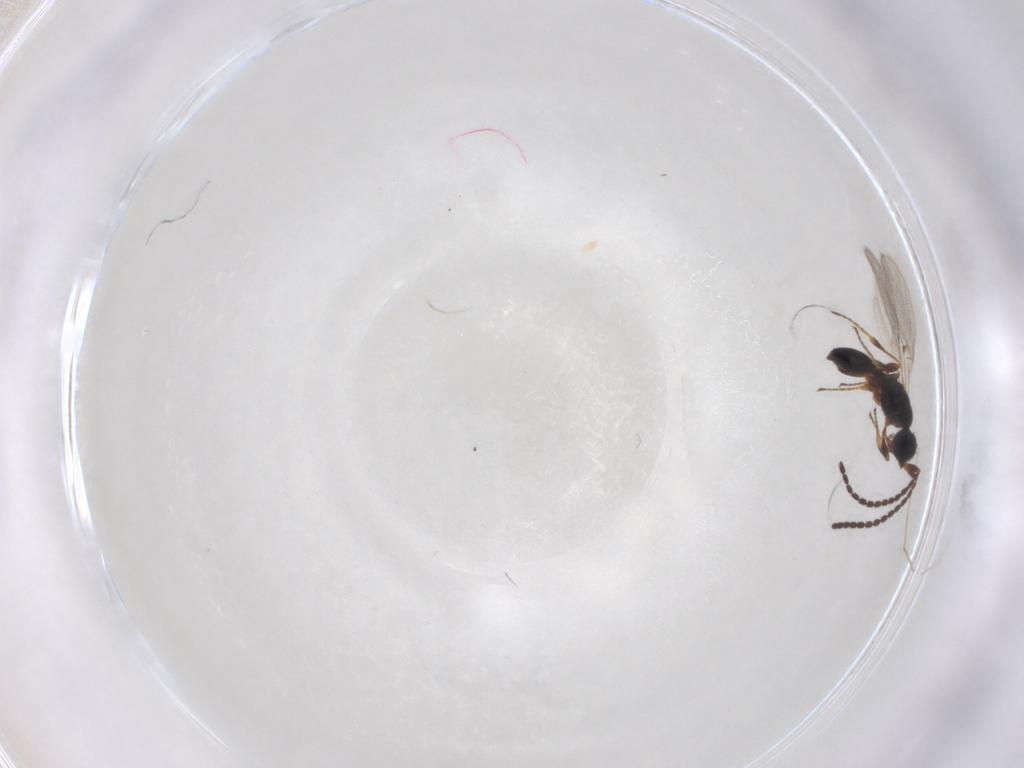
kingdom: Animalia
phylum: Arthropoda
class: Insecta
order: Hymenoptera
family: Diapriidae
